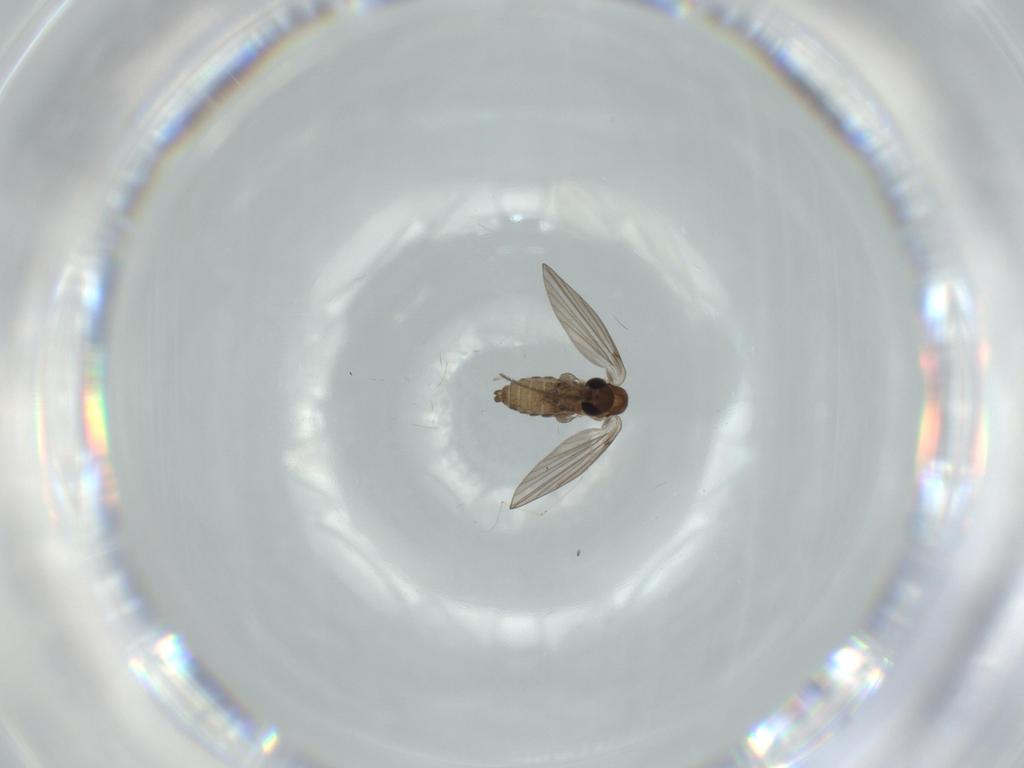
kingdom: Animalia
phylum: Arthropoda
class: Insecta
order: Diptera
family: Psychodidae
